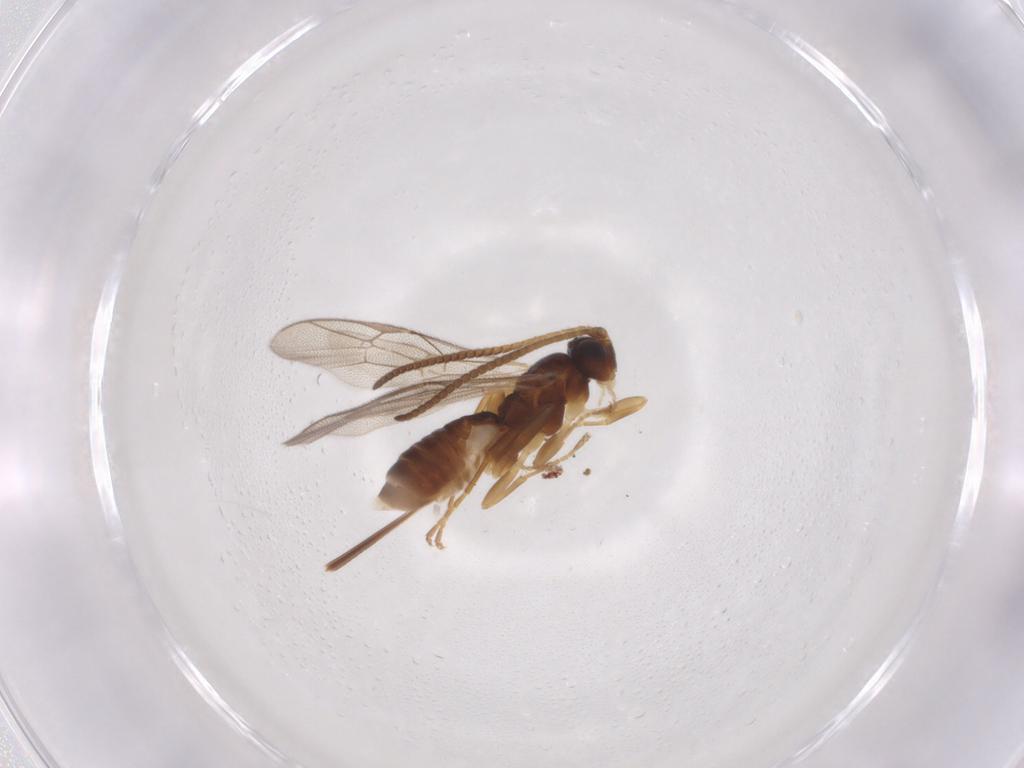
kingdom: Animalia
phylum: Arthropoda
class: Insecta
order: Hymenoptera
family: Ichneumonidae
